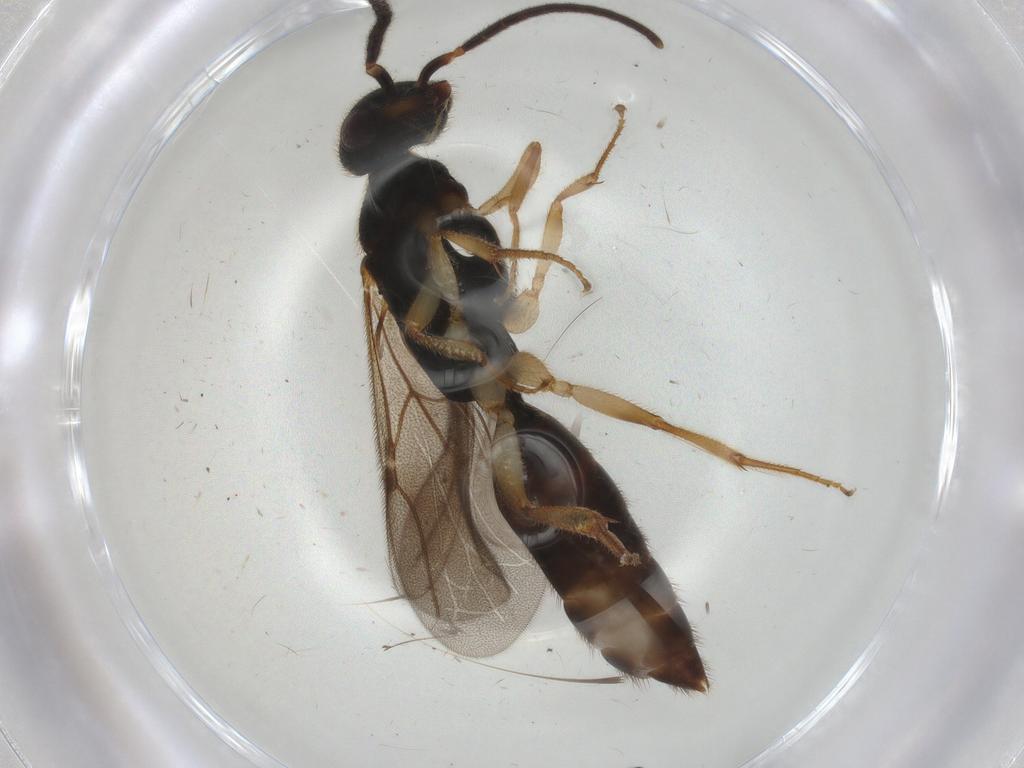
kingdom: Animalia
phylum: Arthropoda
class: Insecta
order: Hymenoptera
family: Bethylidae
